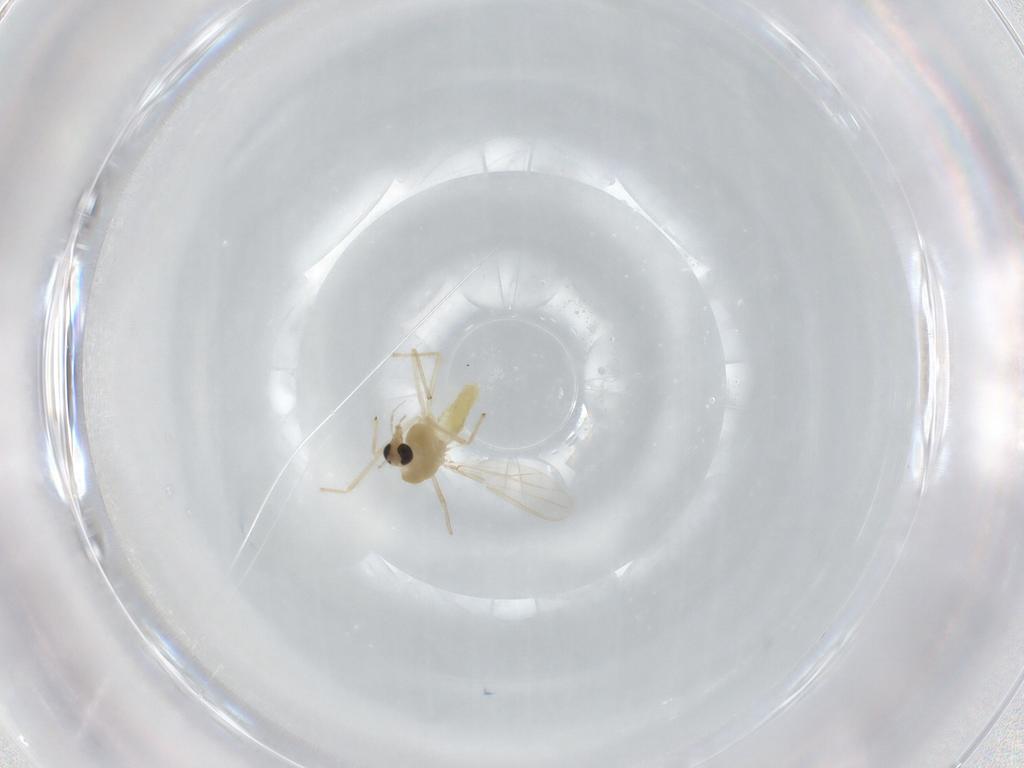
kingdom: Animalia
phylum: Arthropoda
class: Insecta
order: Diptera
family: Chironomidae
